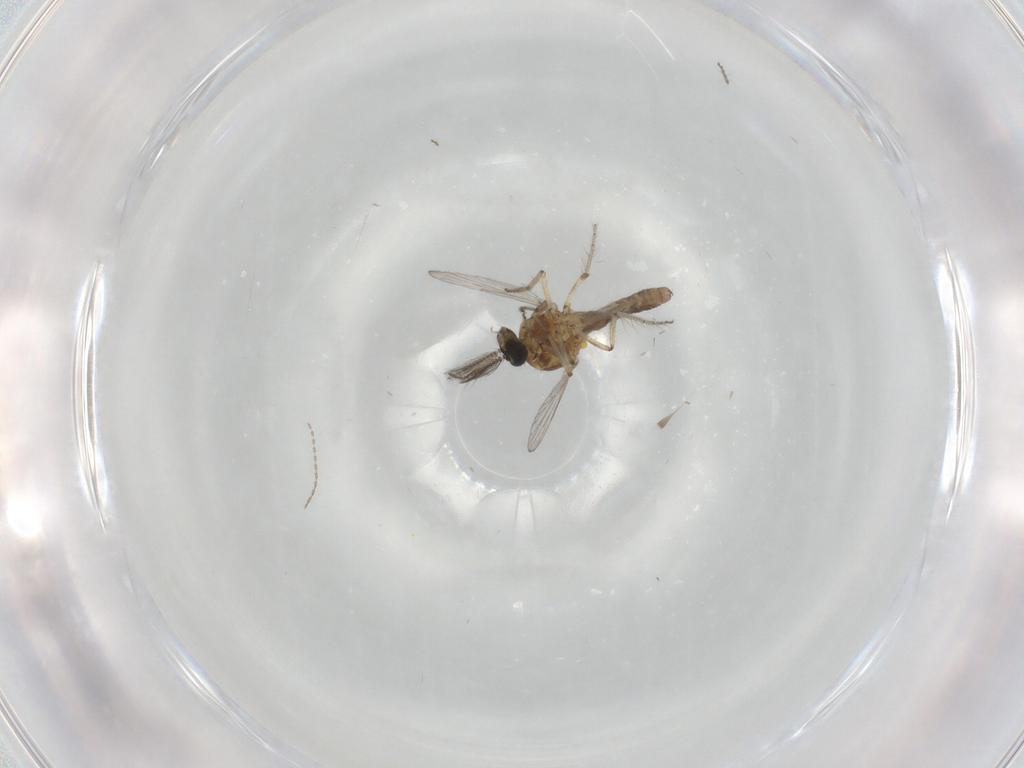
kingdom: Animalia
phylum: Arthropoda
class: Insecta
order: Diptera
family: Ceratopogonidae
